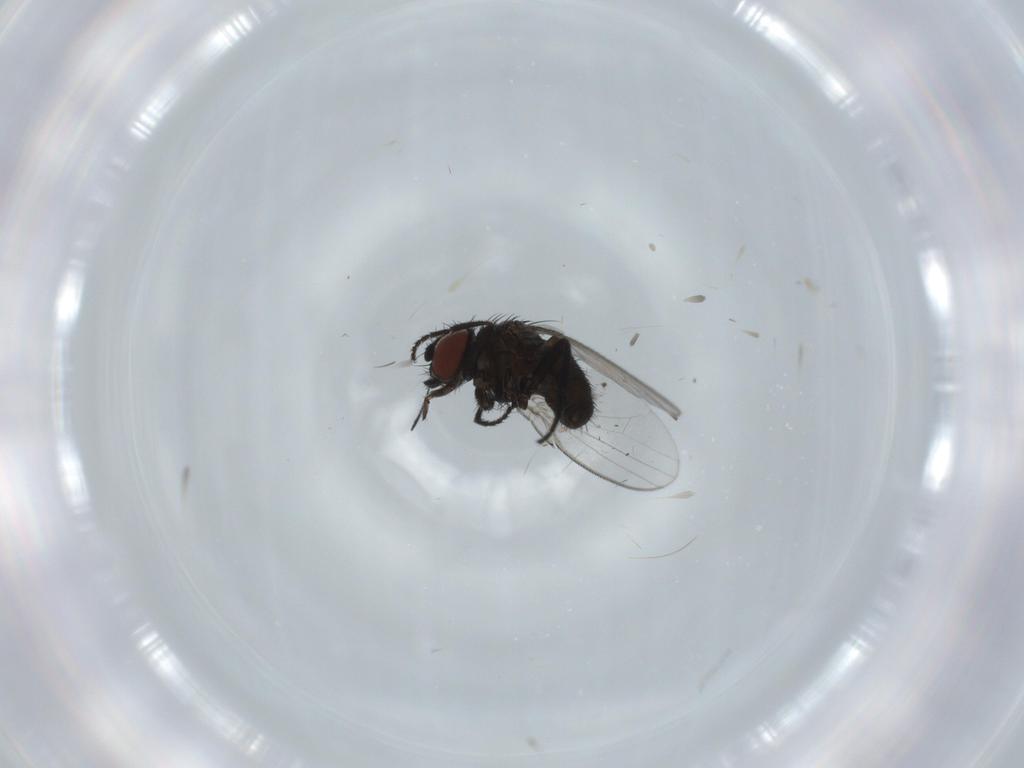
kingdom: Animalia
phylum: Arthropoda
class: Insecta
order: Diptera
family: Milichiidae
